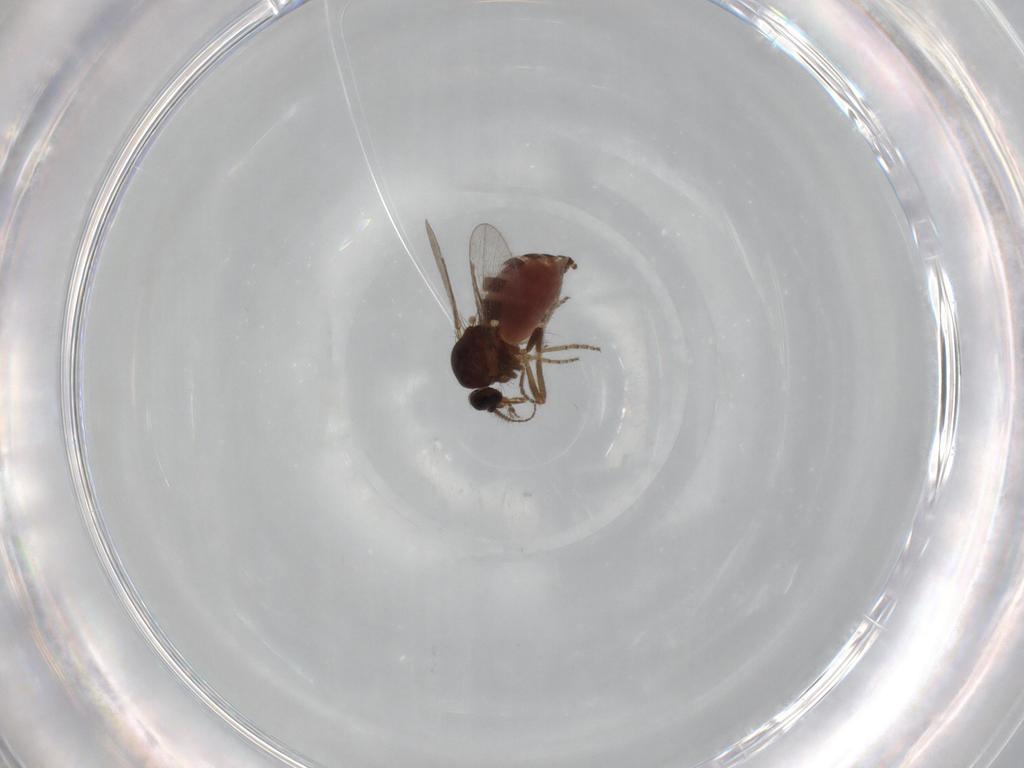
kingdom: Animalia
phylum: Arthropoda
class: Insecta
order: Diptera
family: Ceratopogonidae
